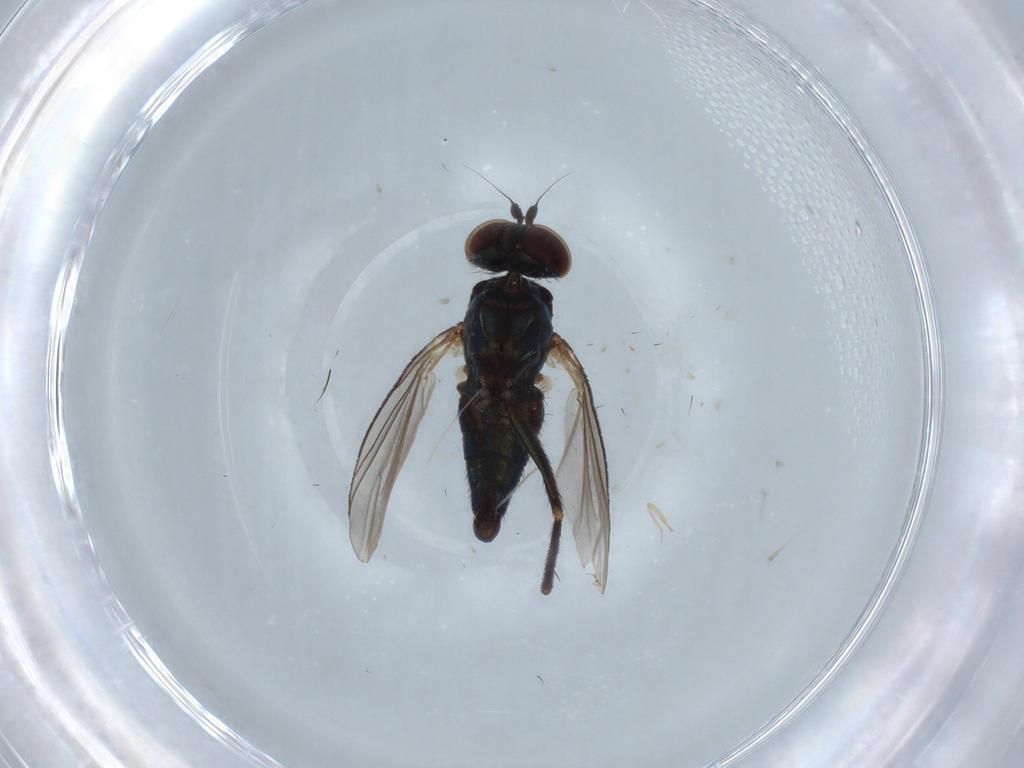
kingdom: Animalia
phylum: Arthropoda
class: Insecta
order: Diptera
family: Dolichopodidae
